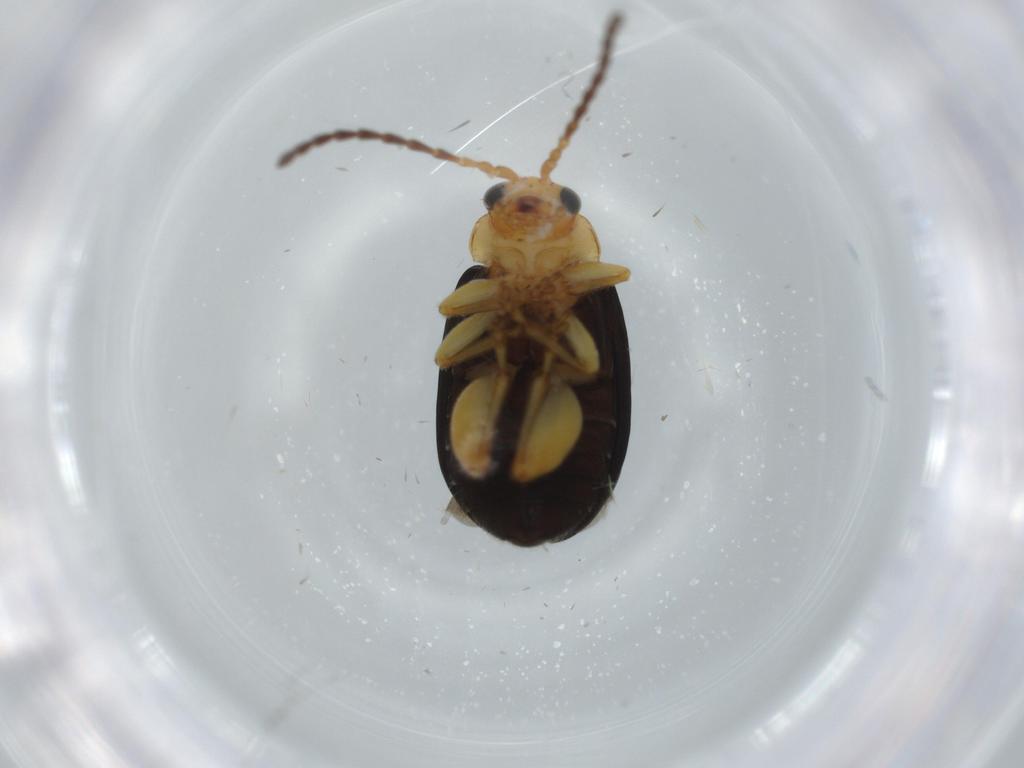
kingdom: Animalia
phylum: Arthropoda
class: Insecta
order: Coleoptera
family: Chrysomelidae
